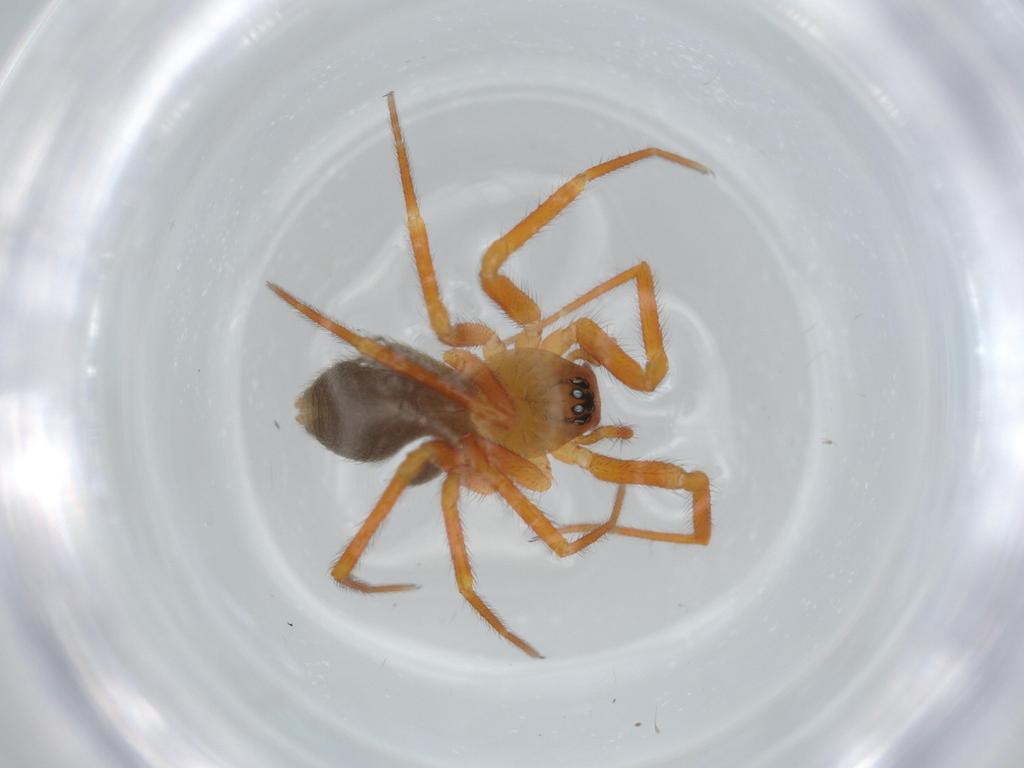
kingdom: Animalia
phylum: Arthropoda
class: Arachnida
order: Araneae
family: Linyphiidae
